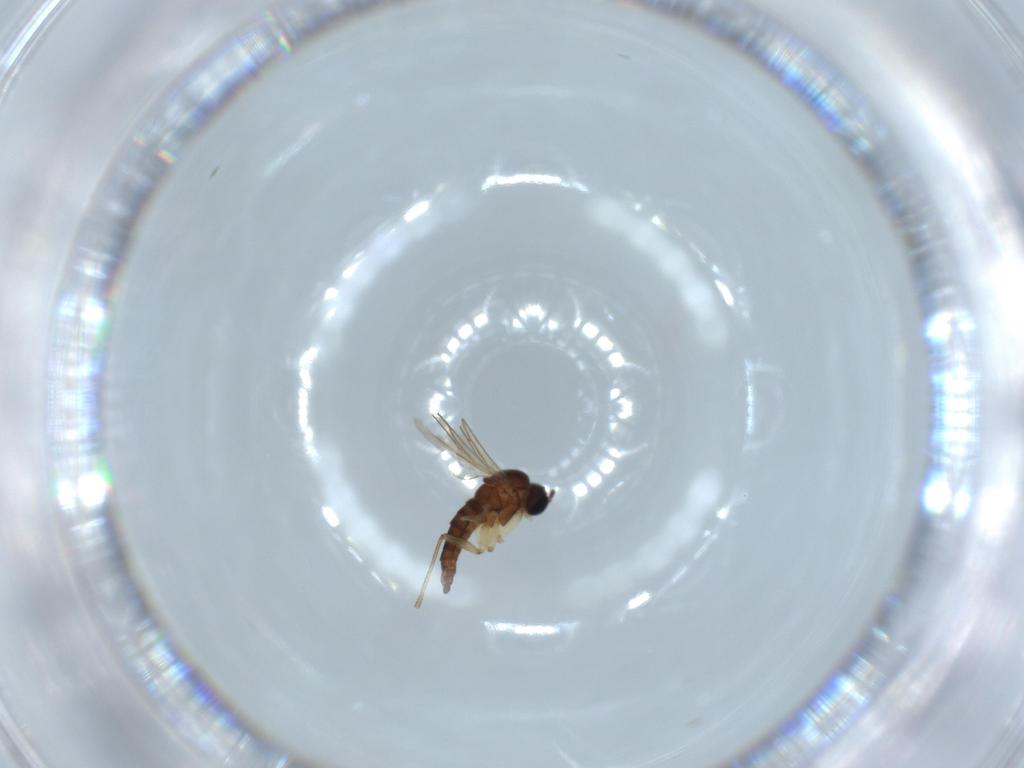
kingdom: Animalia
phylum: Arthropoda
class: Insecta
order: Diptera
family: Sciaridae
